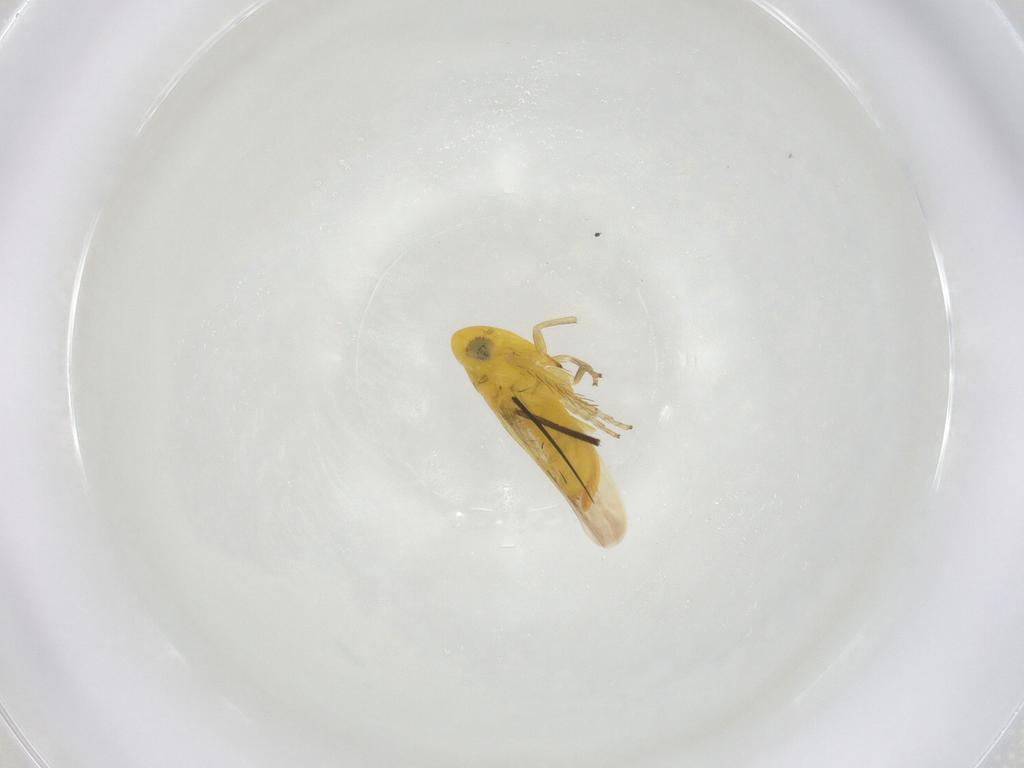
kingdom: Animalia
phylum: Arthropoda
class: Insecta
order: Hemiptera
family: Cicadellidae
